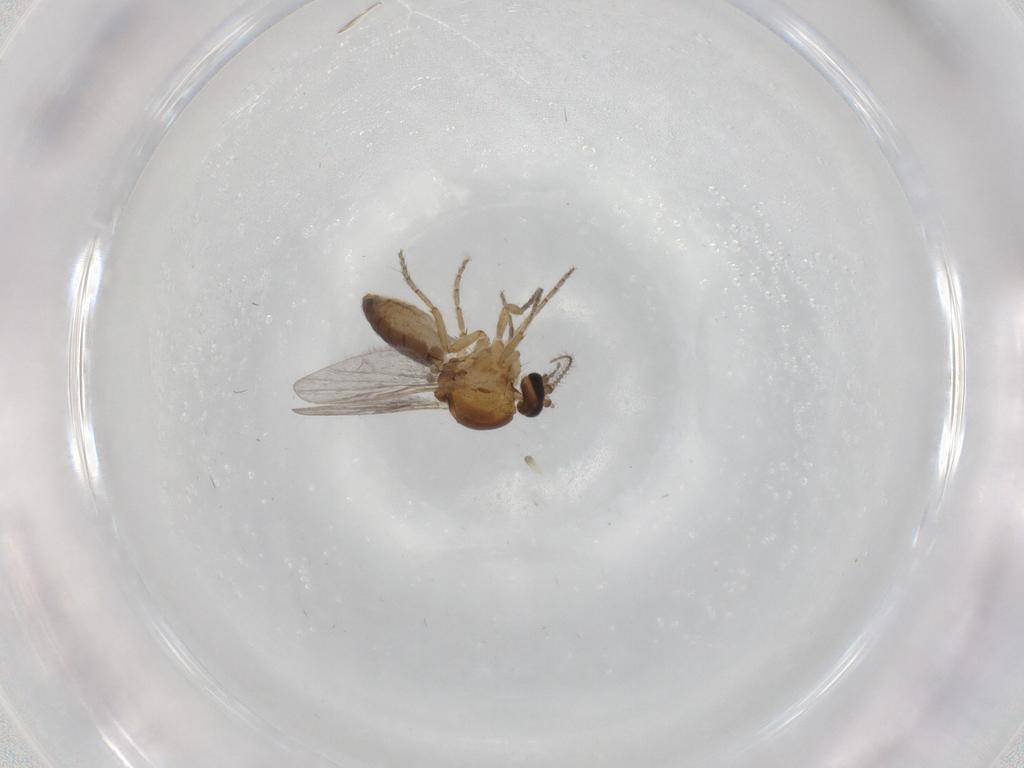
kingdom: Animalia
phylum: Arthropoda
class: Insecta
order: Diptera
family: Ceratopogonidae
